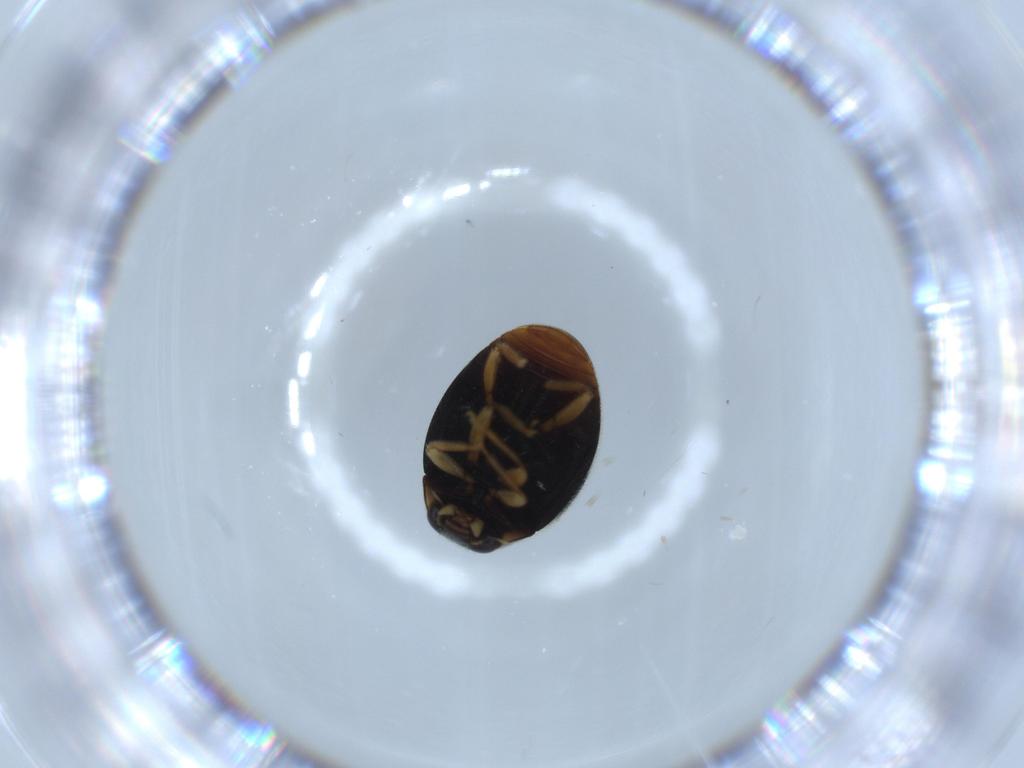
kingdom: Animalia
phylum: Arthropoda
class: Insecta
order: Coleoptera
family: Coccinellidae
